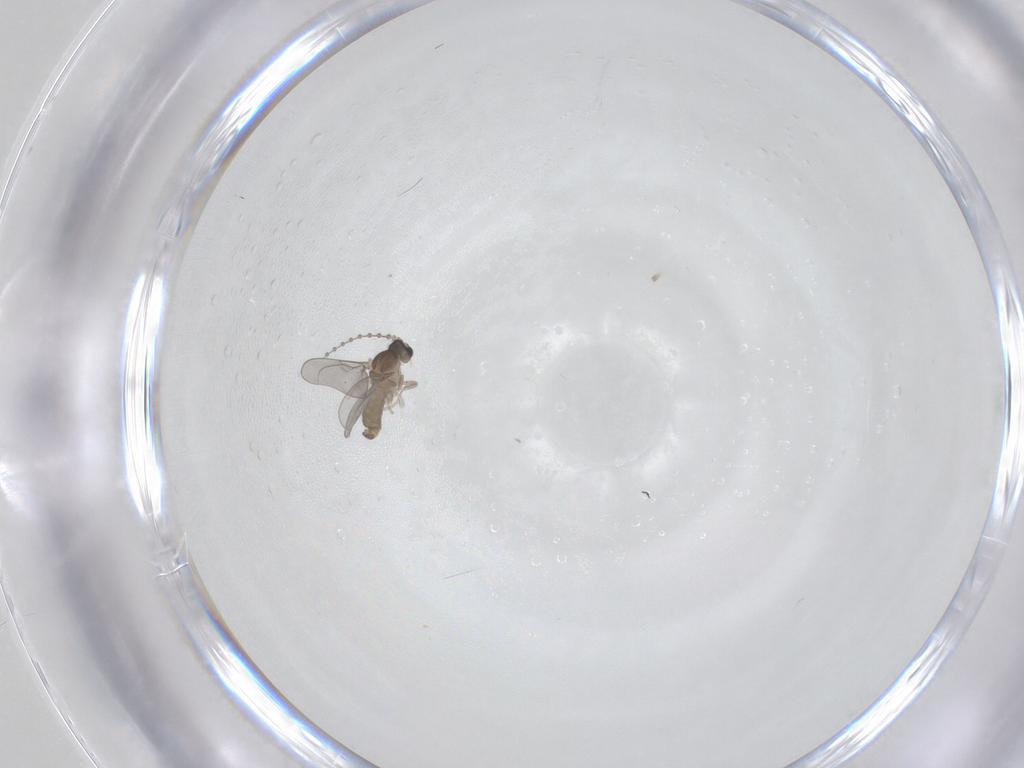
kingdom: Animalia
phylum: Arthropoda
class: Insecta
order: Diptera
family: Cecidomyiidae
